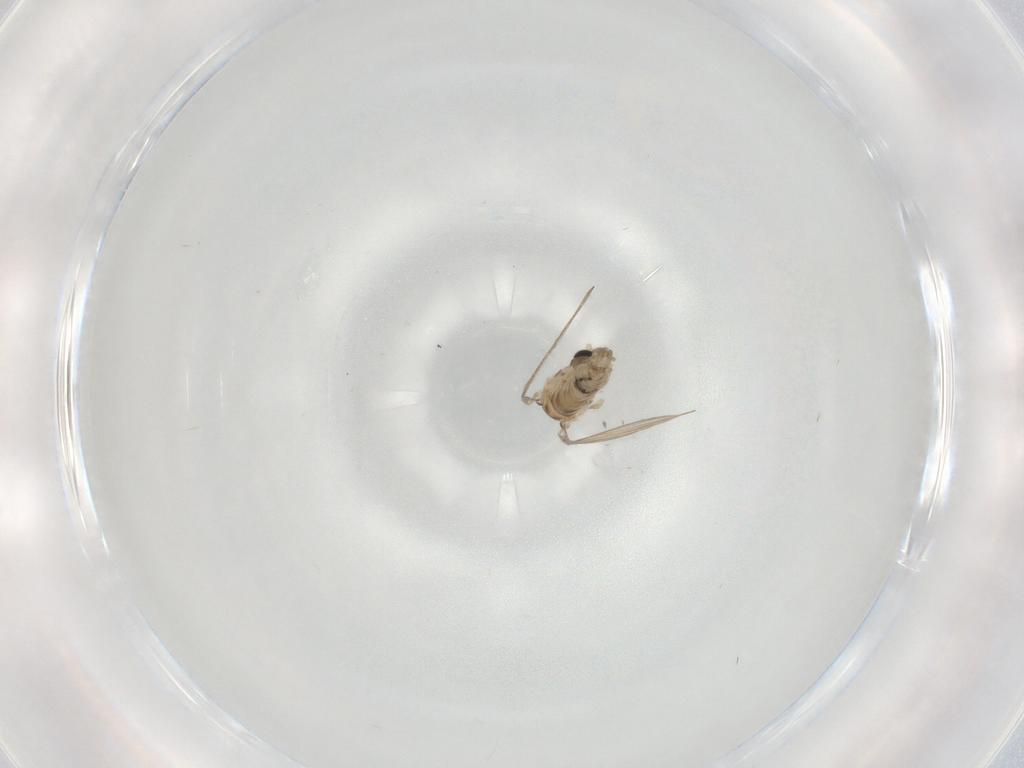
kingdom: Animalia
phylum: Arthropoda
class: Insecta
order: Diptera
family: Psychodidae
